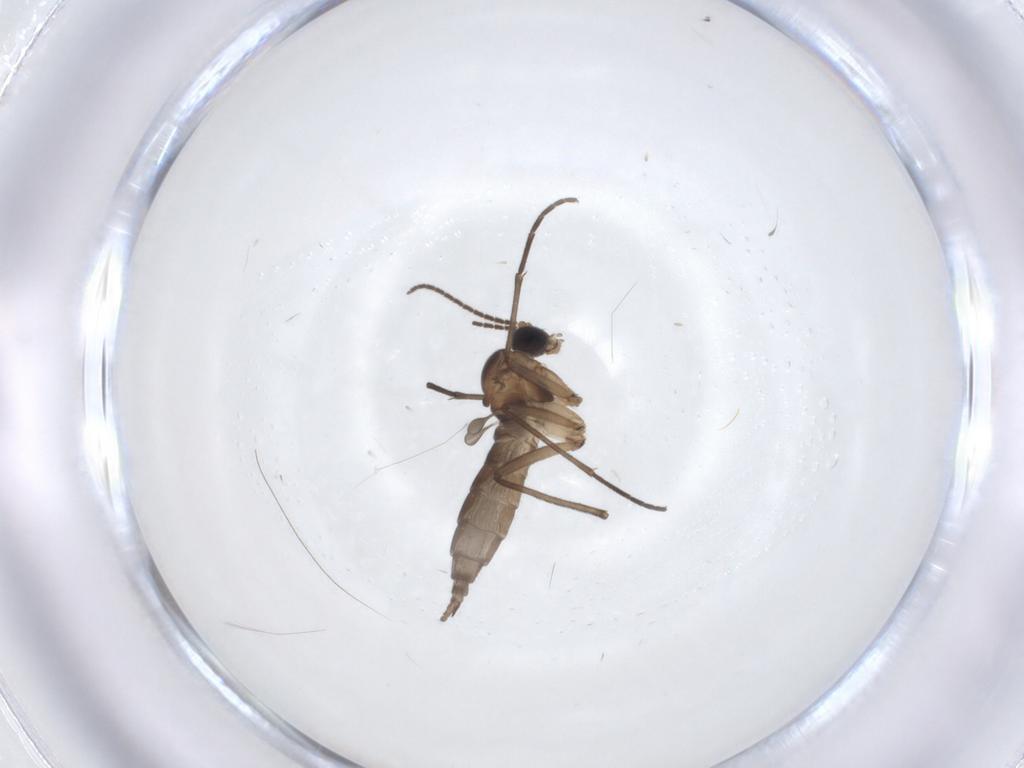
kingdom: Animalia
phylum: Arthropoda
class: Insecta
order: Diptera
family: Sciaridae
